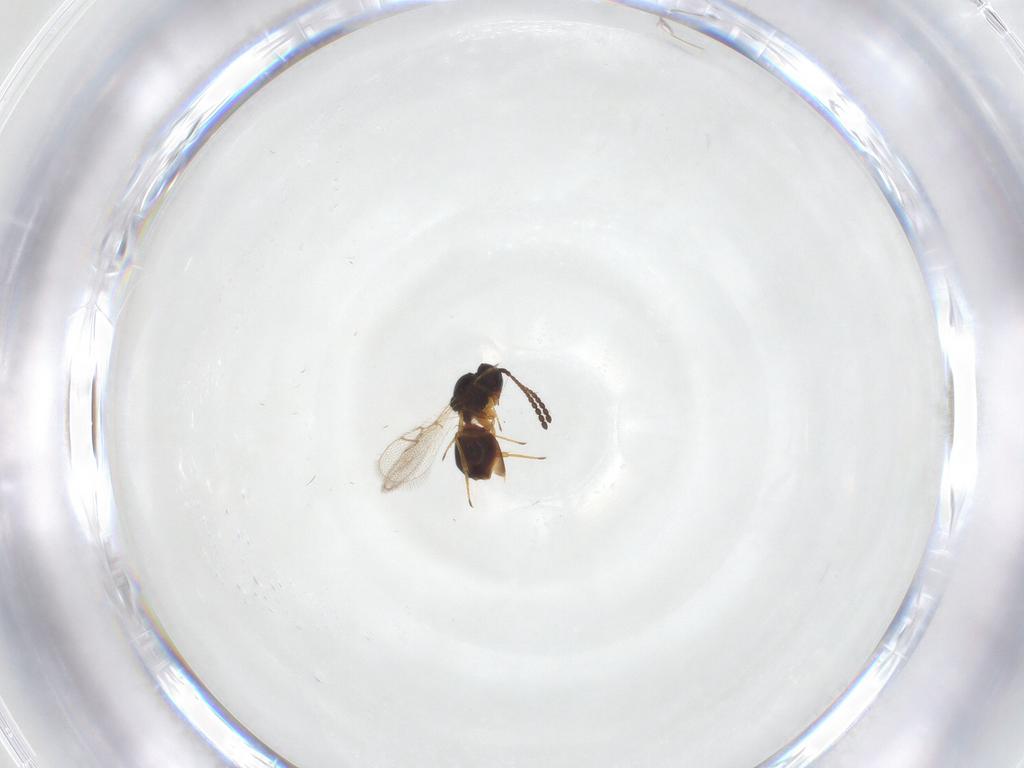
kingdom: Animalia
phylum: Arthropoda
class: Insecta
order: Hymenoptera
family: Figitidae
